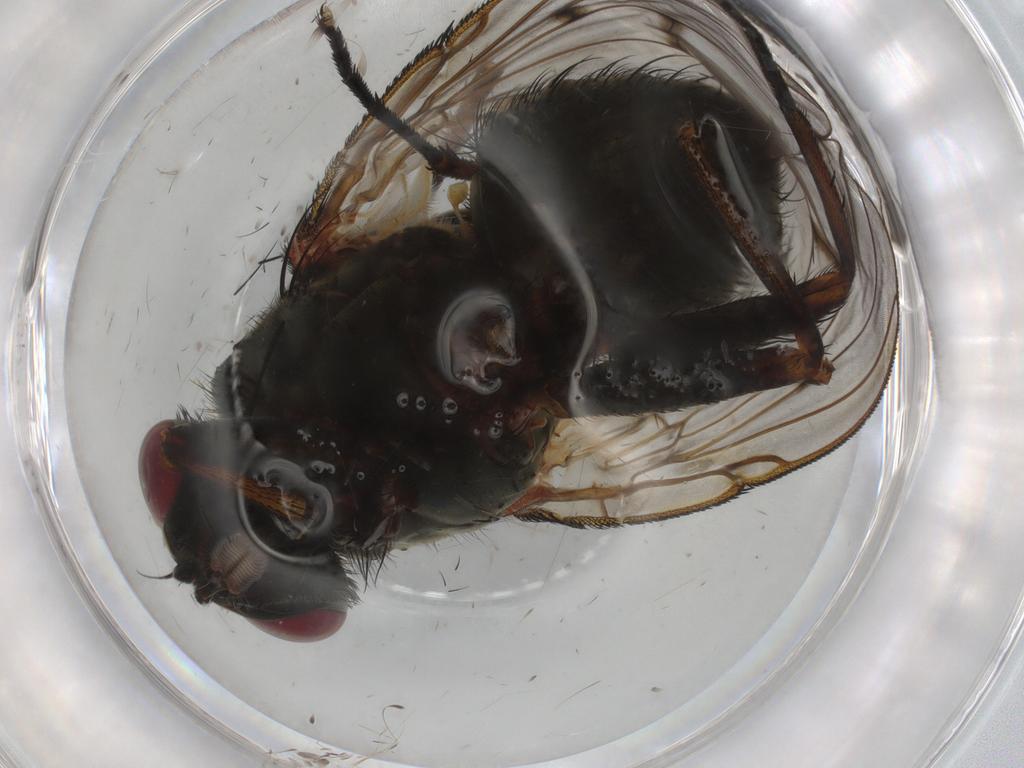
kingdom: Animalia
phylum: Arthropoda
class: Insecta
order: Diptera
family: Muscidae
